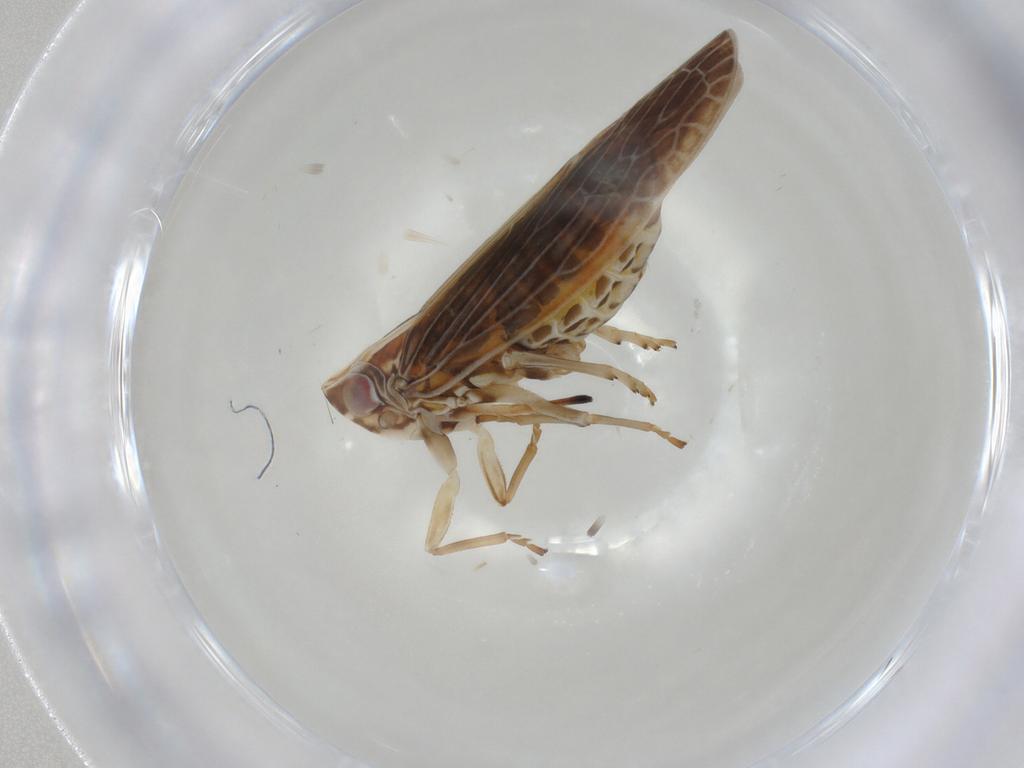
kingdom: Animalia
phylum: Arthropoda
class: Insecta
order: Hemiptera
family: Achilidae
